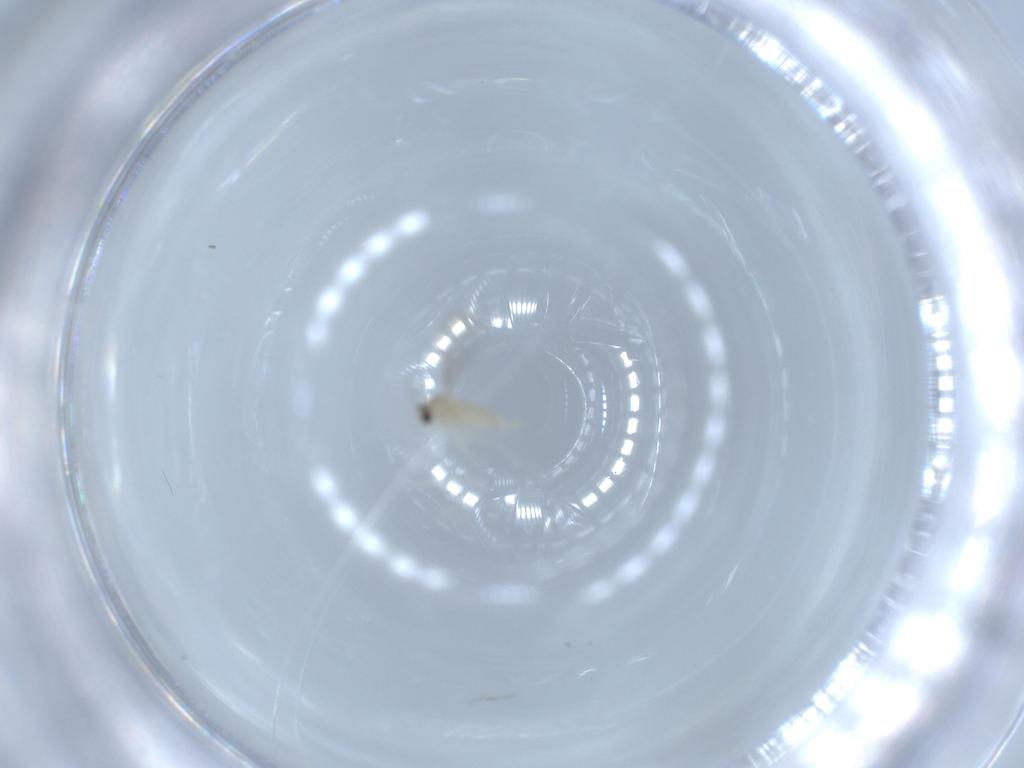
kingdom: Animalia
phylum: Arthropoda
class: Insecta
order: Diptera
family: Cecidomyiidae
